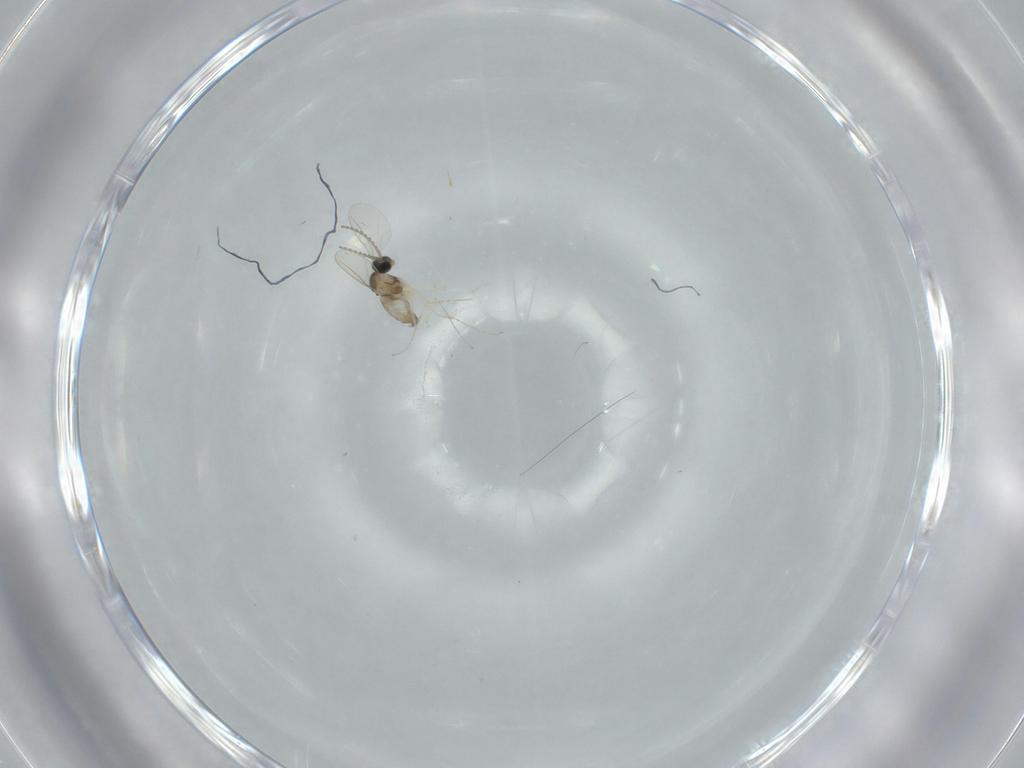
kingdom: Animalia
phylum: Arthropoda
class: Insecta
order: Diptera
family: Cecidomyiidae
